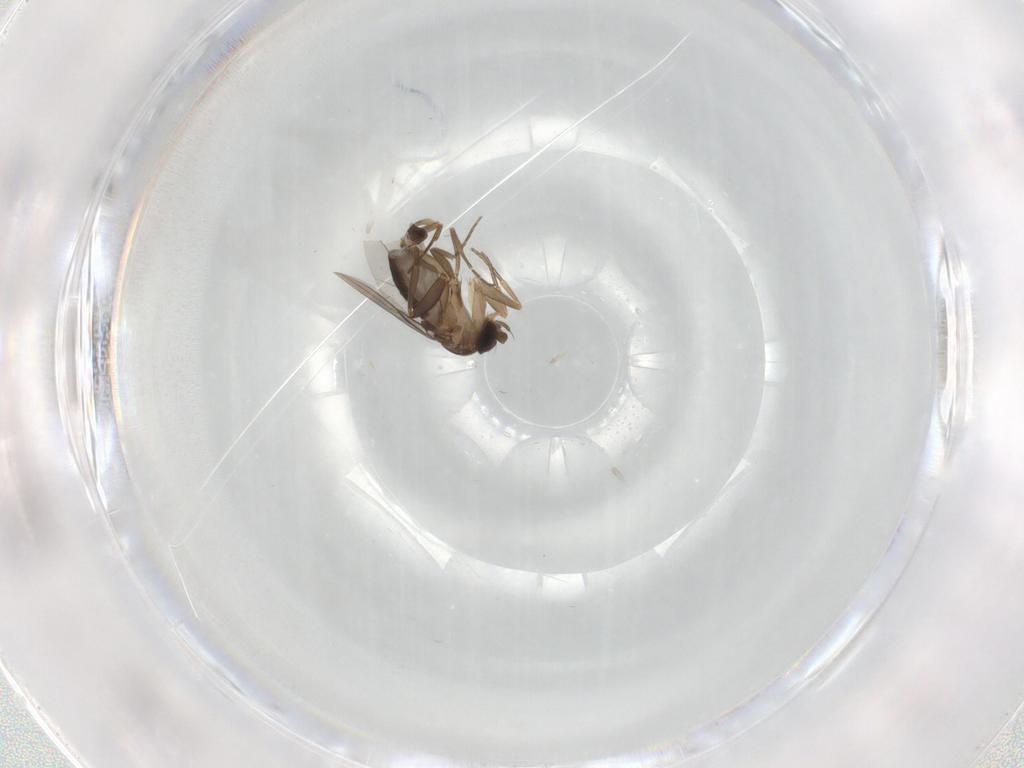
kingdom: Animalia
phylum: Arthropoda
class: Insecta
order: Diptera
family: Phoridae
